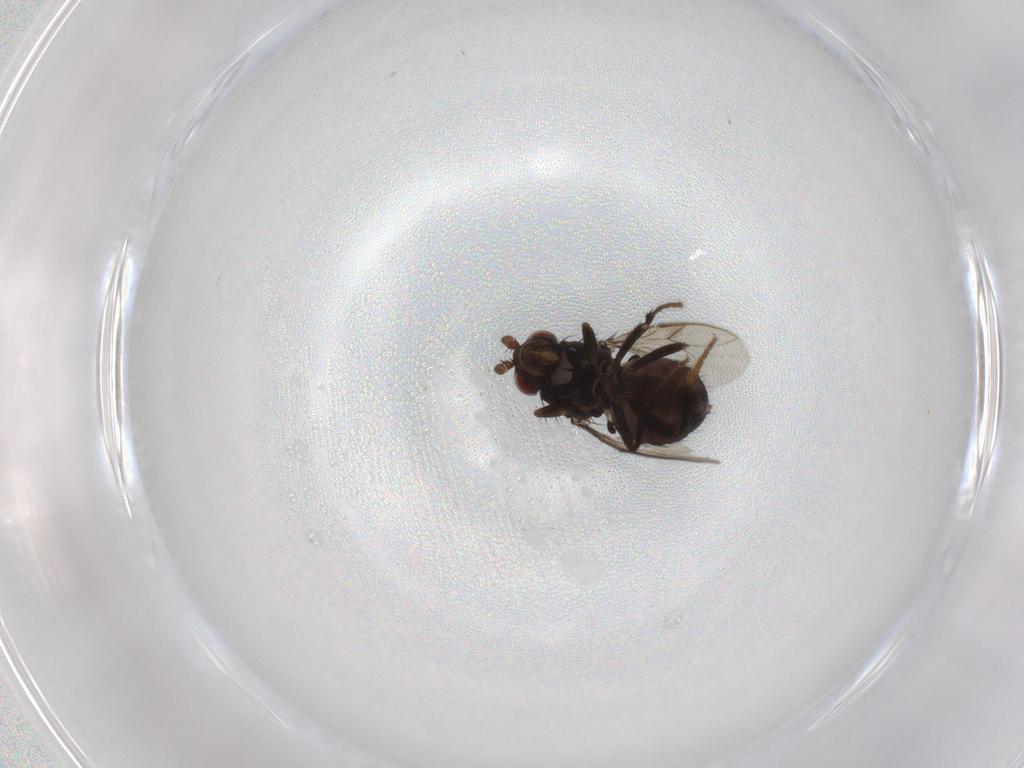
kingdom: Animalia
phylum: Arthropoda
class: Insecta
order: Diptera
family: Sphaeroceridae
